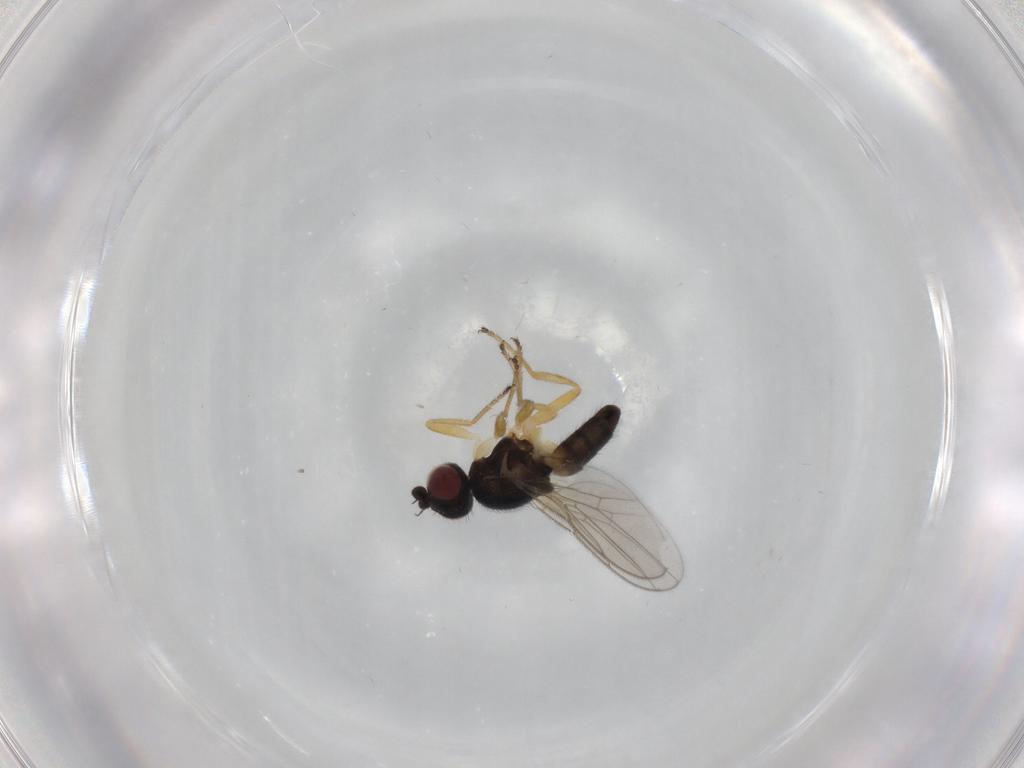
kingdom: Animalia
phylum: Arthropoda
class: Insecta
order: Diptera
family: Chloropidae
